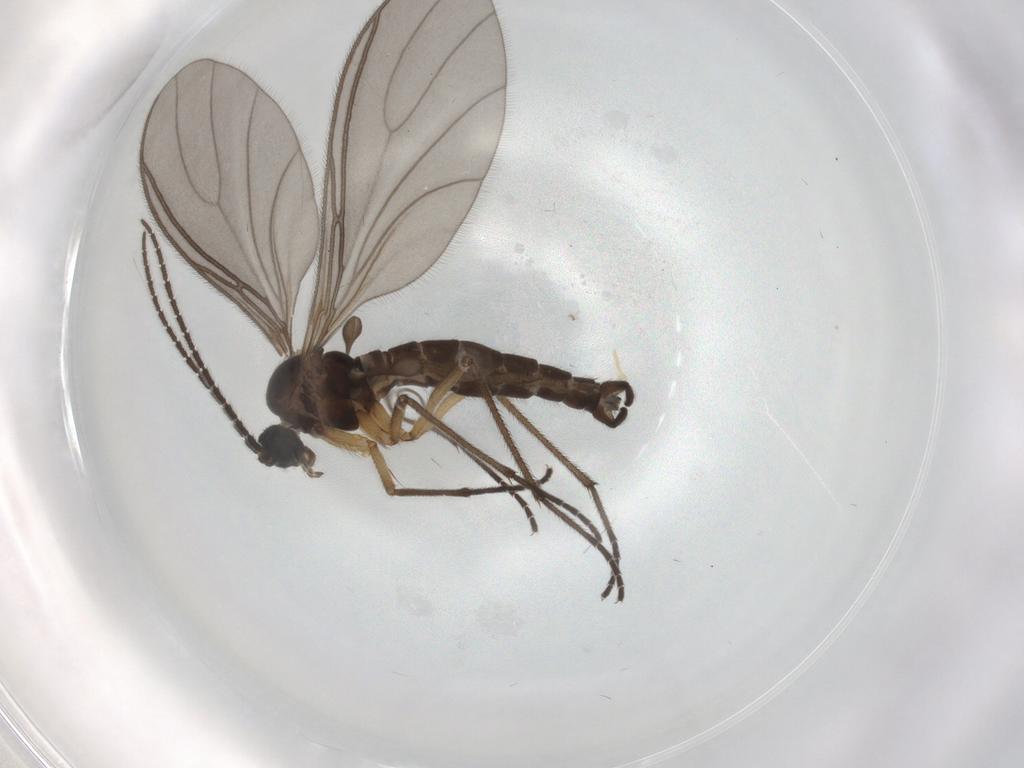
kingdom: Animalia
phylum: Arthropoda
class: Insecta
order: Diptera
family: Sciaridae
